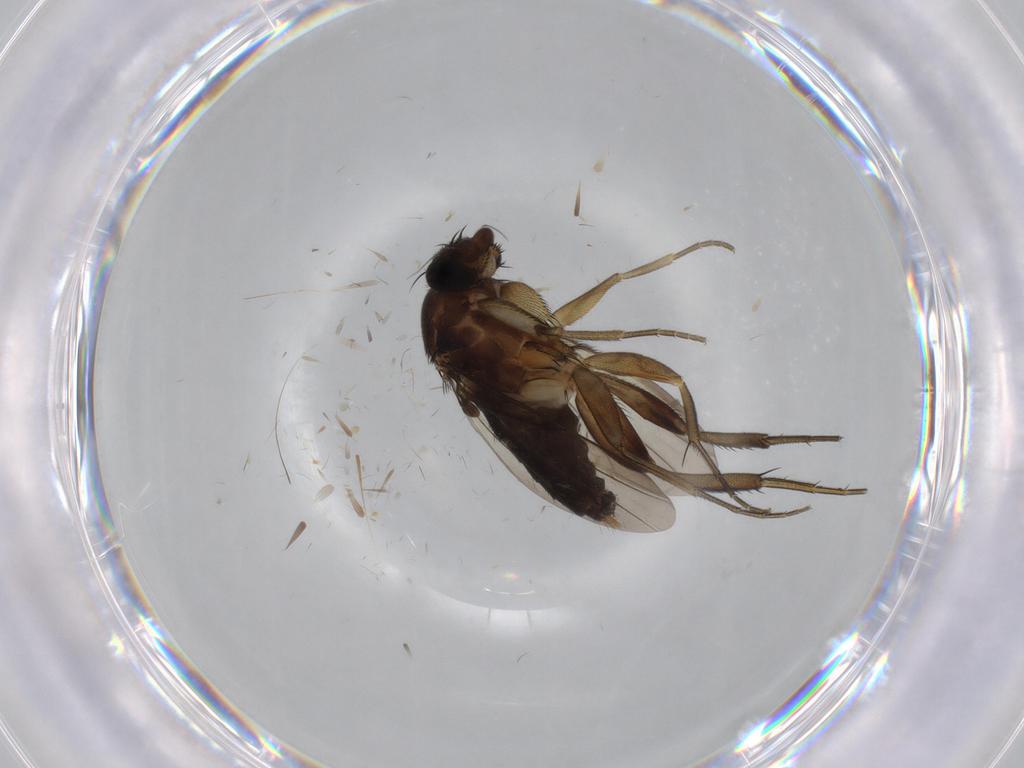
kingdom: Animalia
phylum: Arthropoda
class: Insecta
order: Diptera
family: Phoridae
